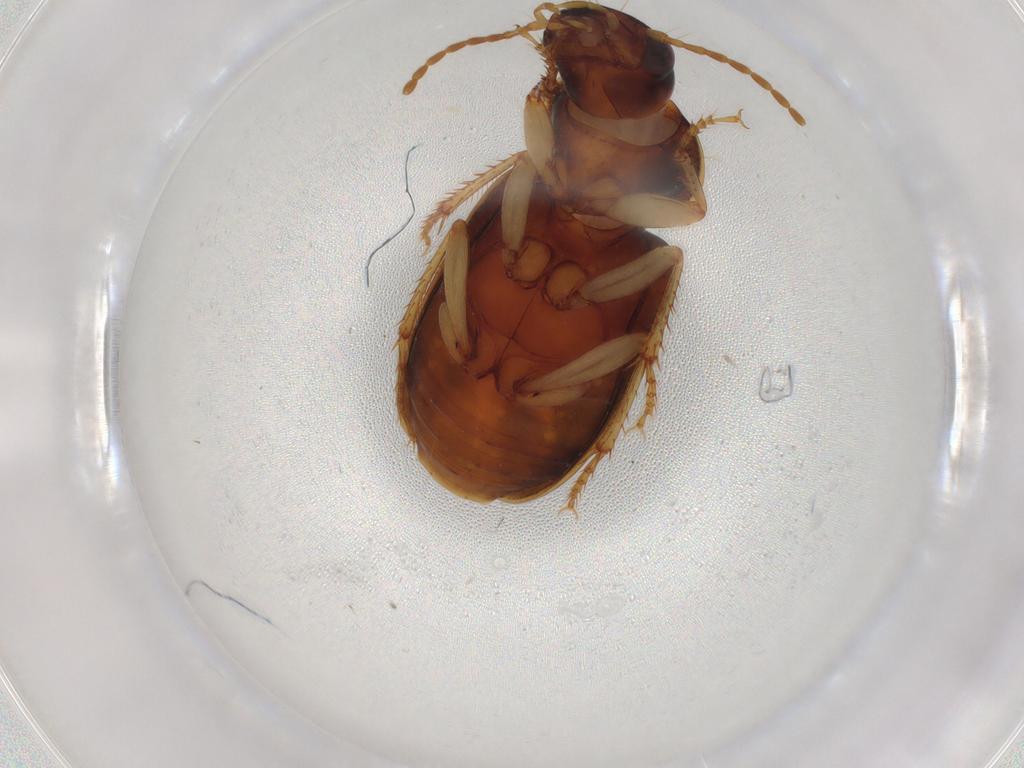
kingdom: Animalia
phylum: Arthropoda
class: Insecta
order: Coleoptera
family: Carabidae
